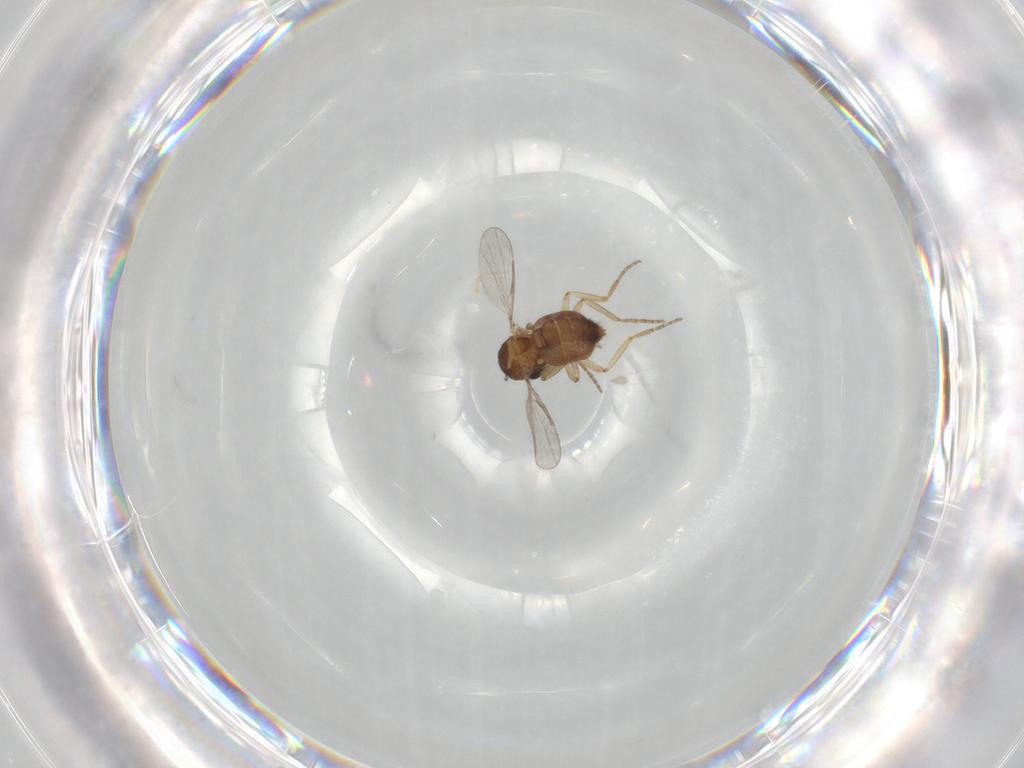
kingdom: Animalia
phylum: Arthropoda
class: Insecta
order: Diptera
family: Ceratopogonidae
